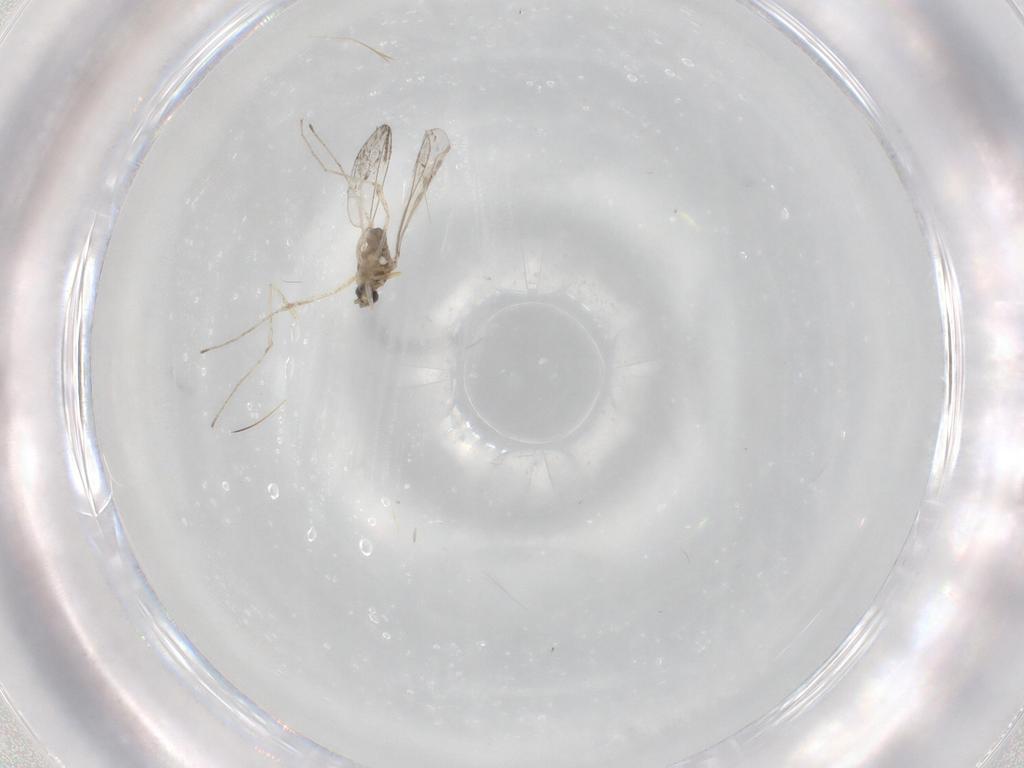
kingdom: Animalia
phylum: Arthropoda
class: Insecta
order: Diptera
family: Cecidomyiidae
